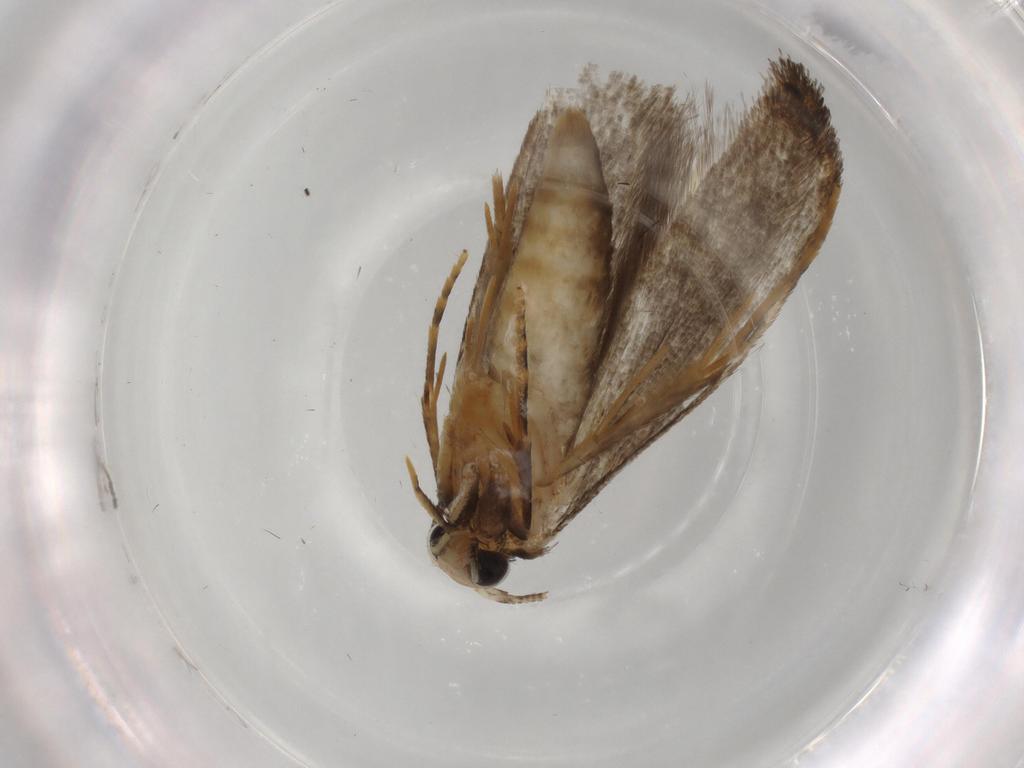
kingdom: Animalia
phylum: Arthropoda
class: Insecta
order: Lepidoptera
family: Tineidae
